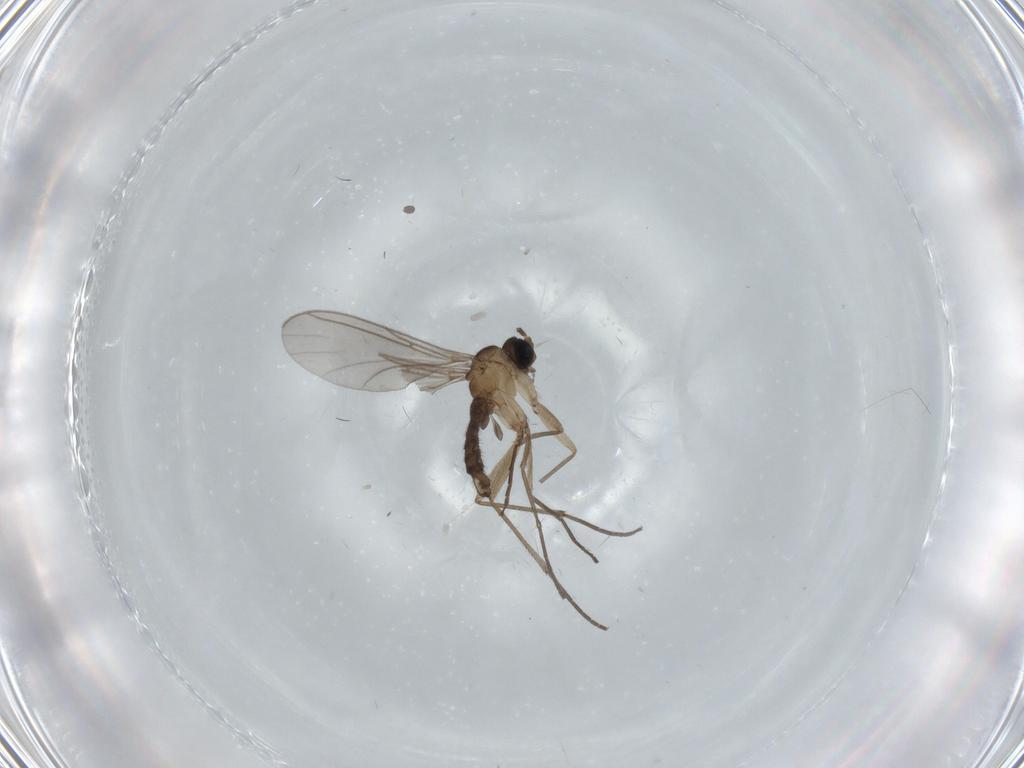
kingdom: Animalia
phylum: Arthropoda
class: Insecta
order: Diptera
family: Sciaridae
